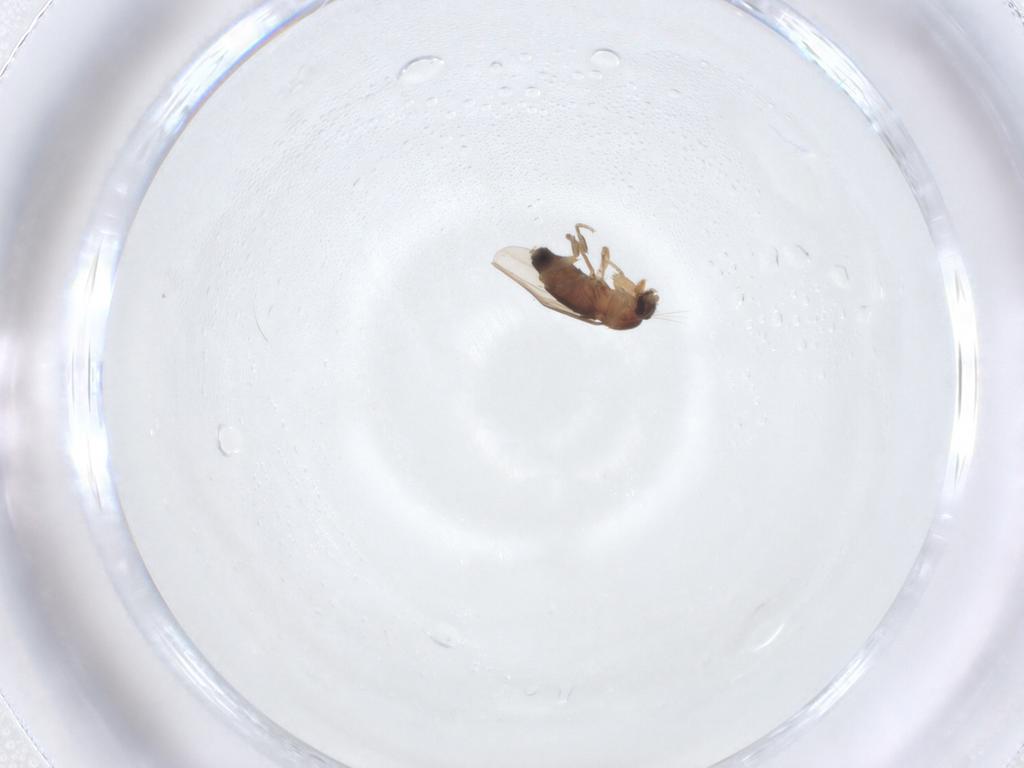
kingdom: Animalia
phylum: Arthropoda
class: Insecta
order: Diptera
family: Phoridae
